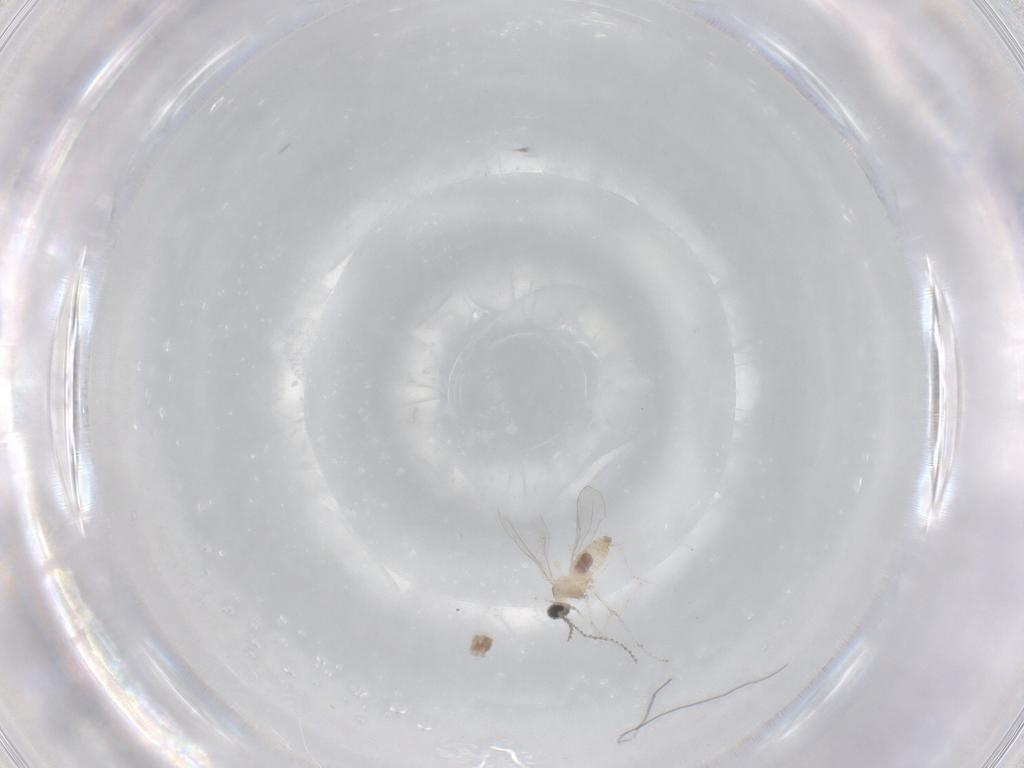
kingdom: Animalia
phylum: Arthropoda
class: Insecta
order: Diptera
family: Cecidomyiidae
